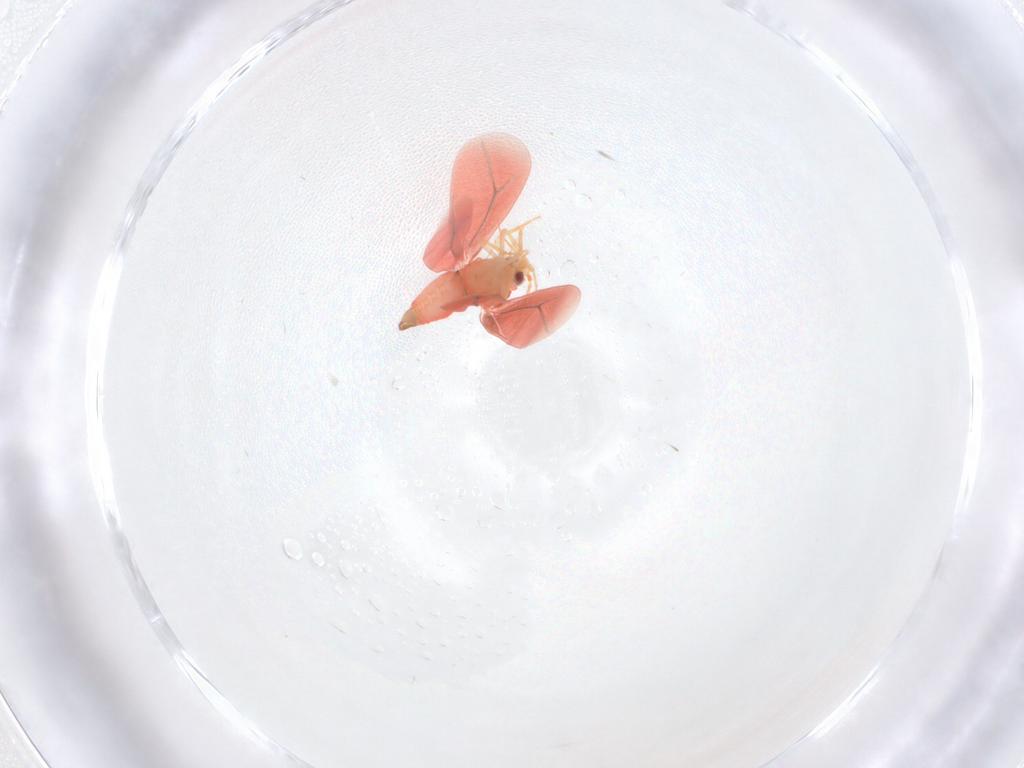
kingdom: Animalia
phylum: Arthropoda
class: Insecta
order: Hemiptera
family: Aleyrodidae
